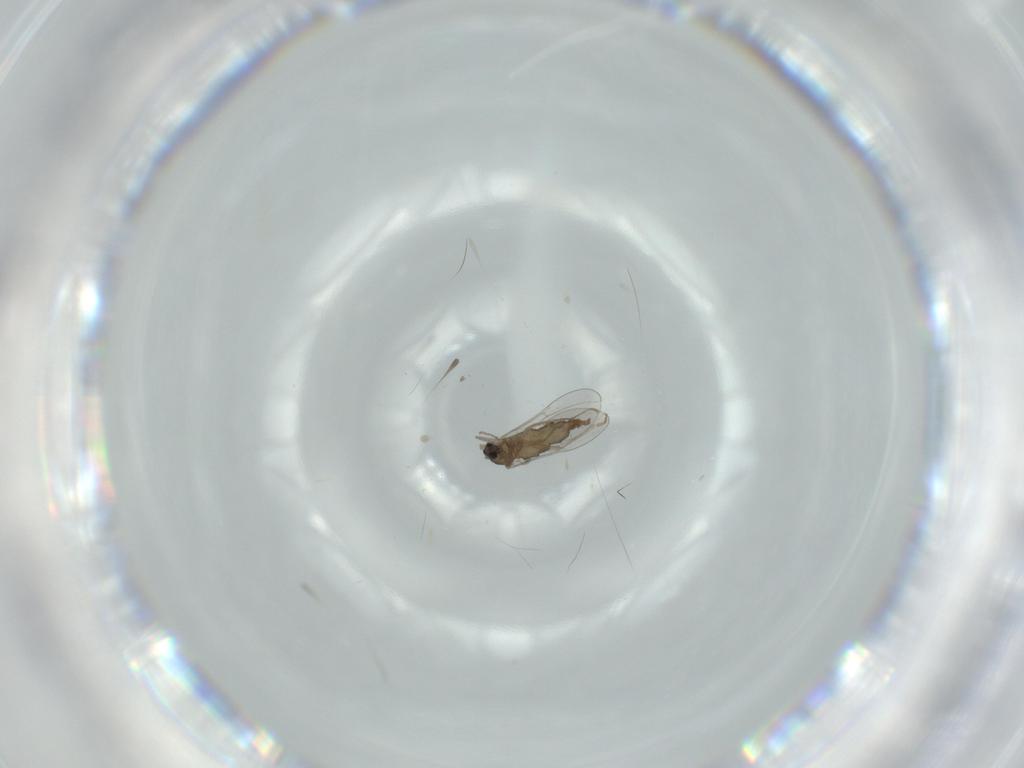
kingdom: Animalia
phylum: Arthropoda
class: Insecta
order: Diptera
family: Cecidomyiidae
